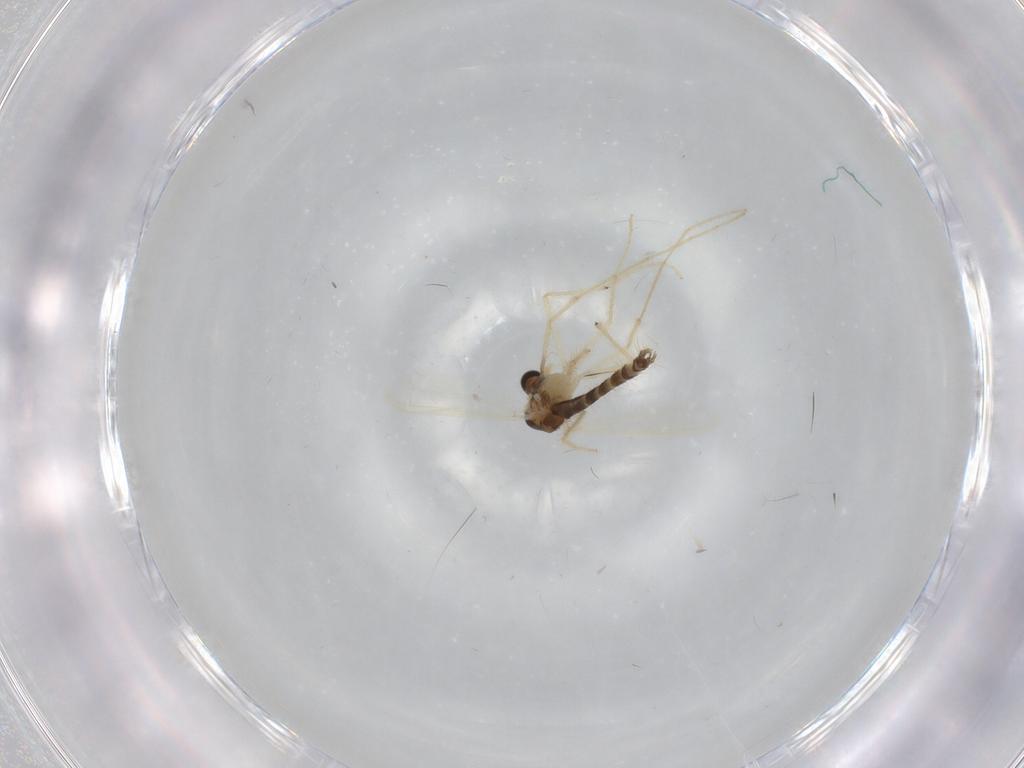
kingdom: Animalia
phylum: Arthropoda
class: Insecta
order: Diptera
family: Chironomidae
